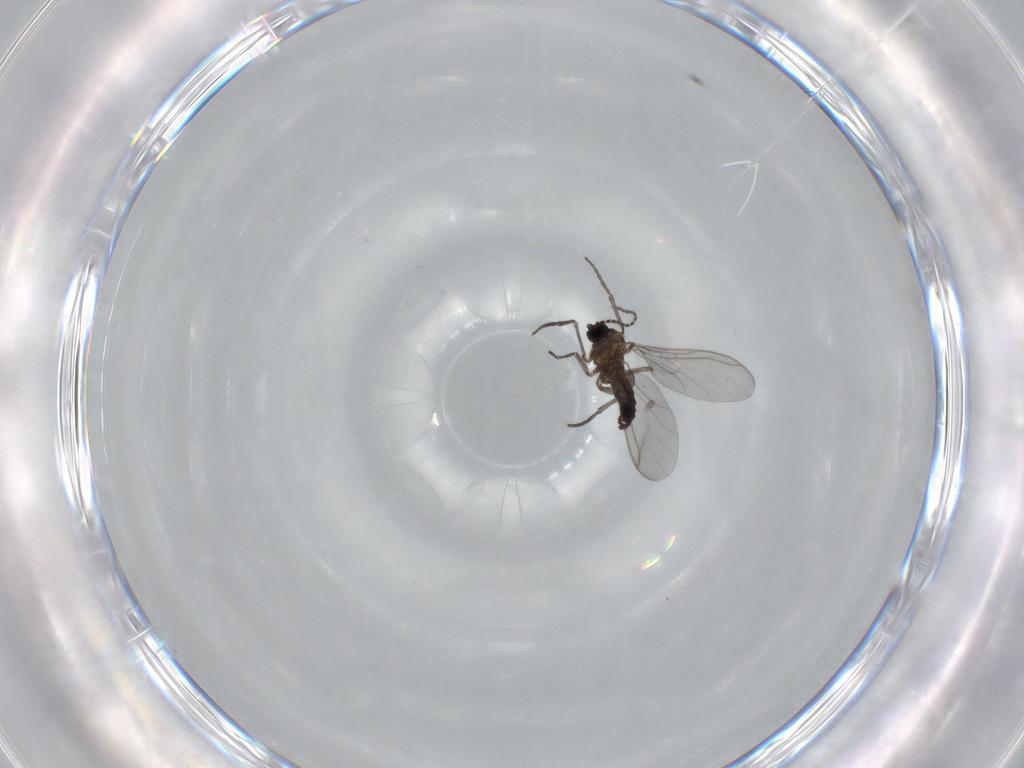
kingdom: Animalia
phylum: Arthropoda
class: Insecta
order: Diptera
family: Sciaridae
